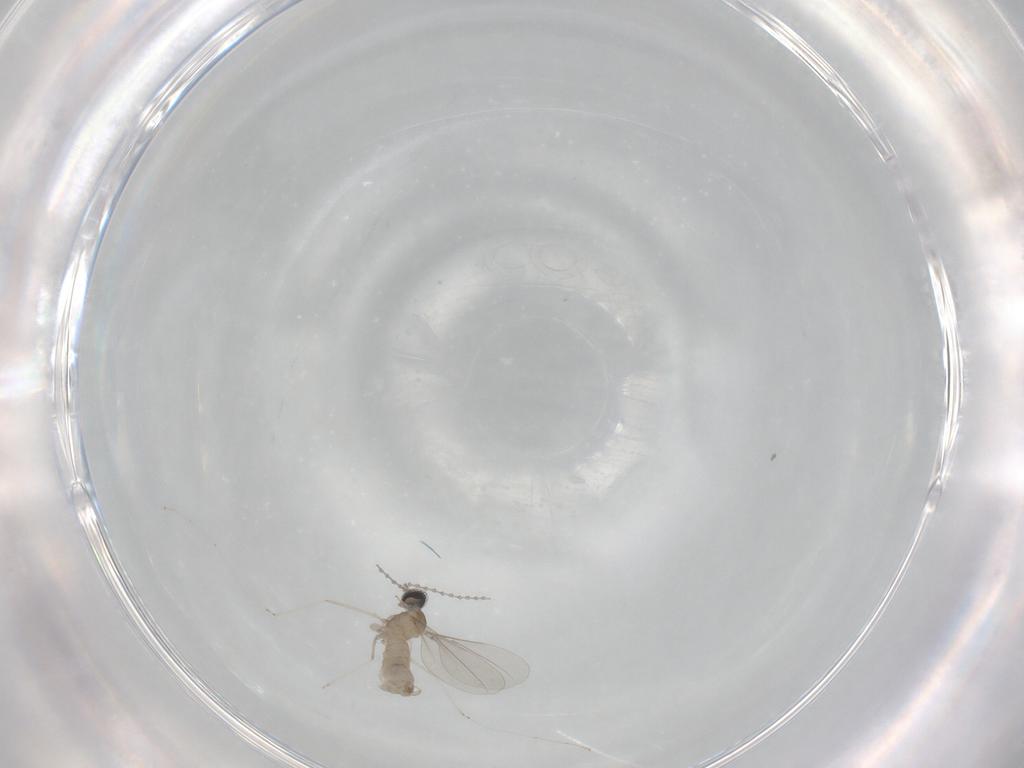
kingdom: Animalia
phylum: Arthropoda
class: Insecta
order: Diptera
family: Cecidomyiidae
